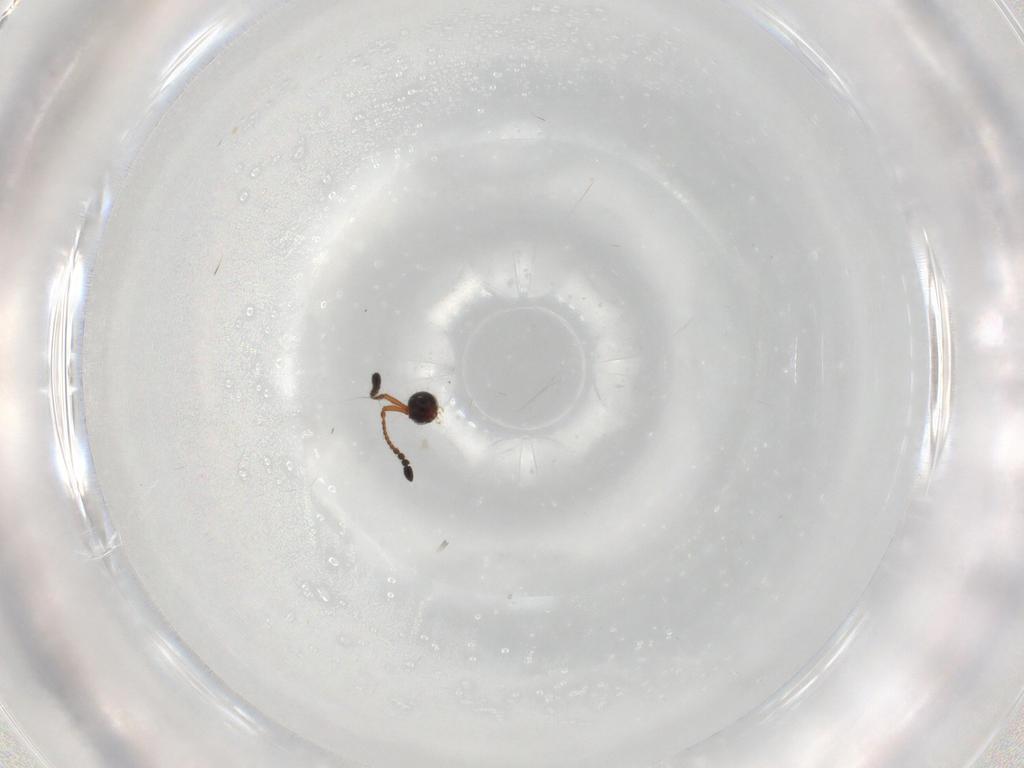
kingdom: Animalia
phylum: Arthropoda
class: Insecta
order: Hymenoptera
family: Diapriidae
